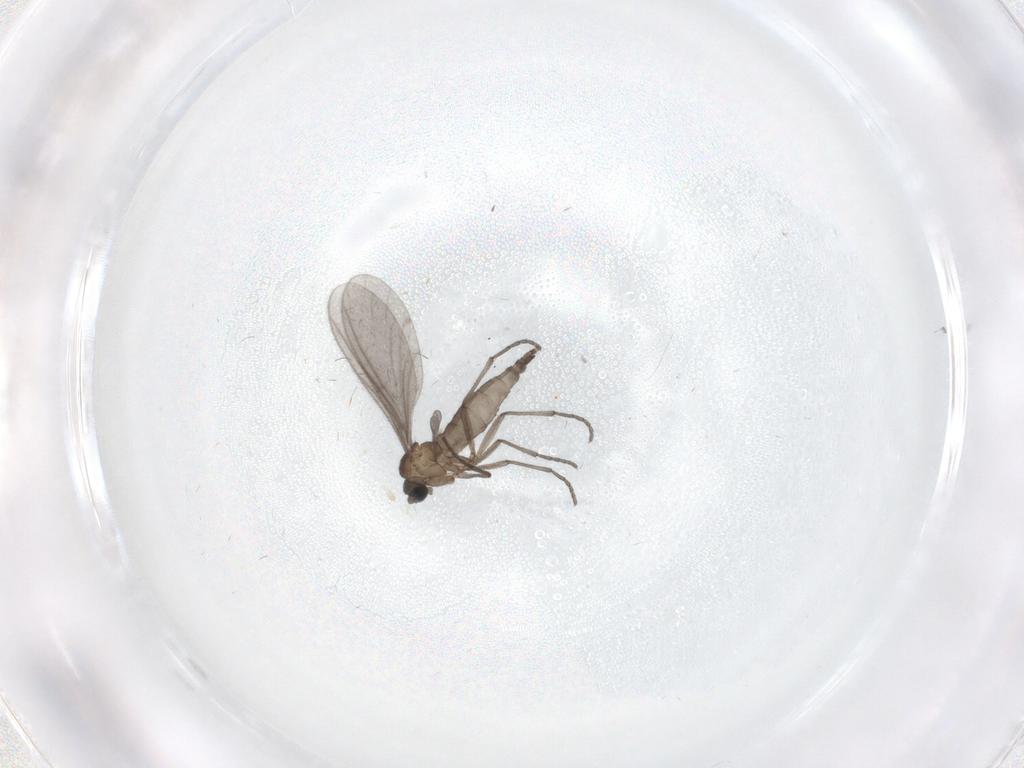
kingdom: Animalia
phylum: Arthropoda
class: Insecta
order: Diptera
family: Sciaridae
